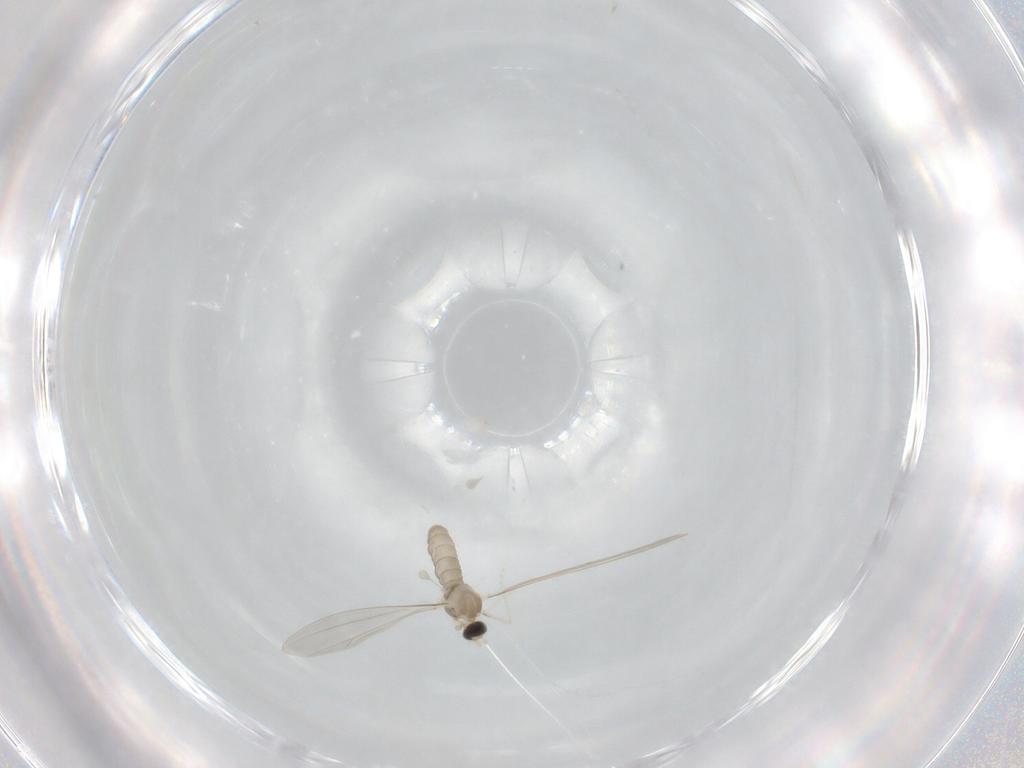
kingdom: Animalia
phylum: Arthropoda
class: Insecta
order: Diptera
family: Cecidomyiidae
